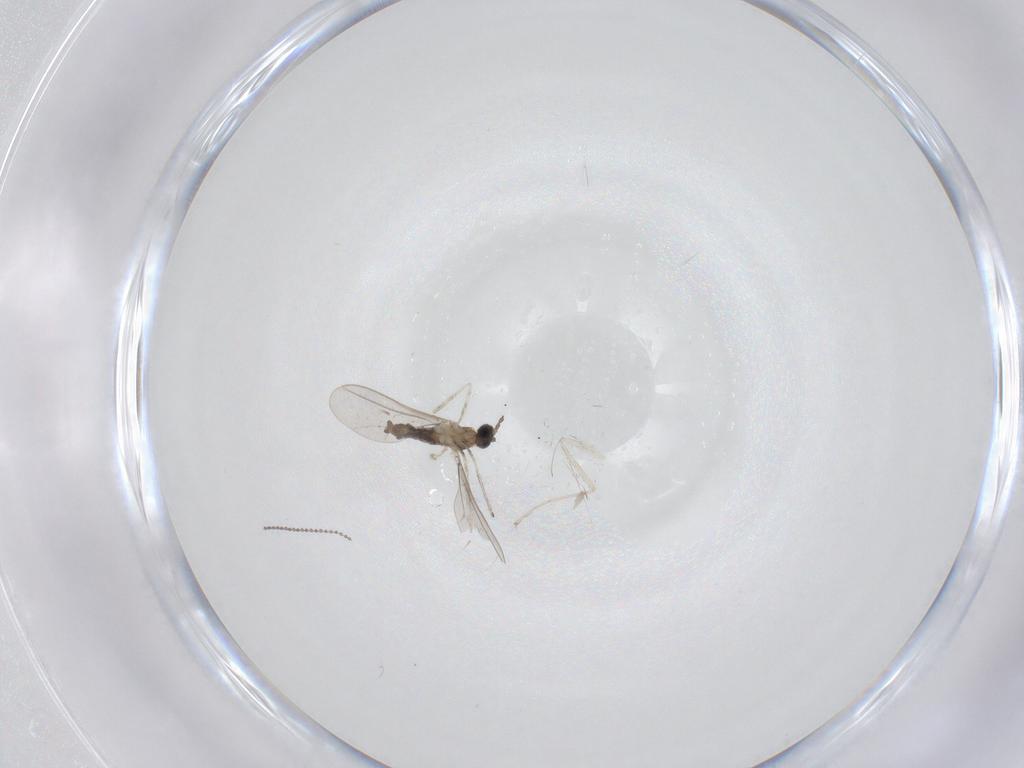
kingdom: Animalia
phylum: Arthropoda
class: Insecta
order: Diptera
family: Cecidomyiidae
